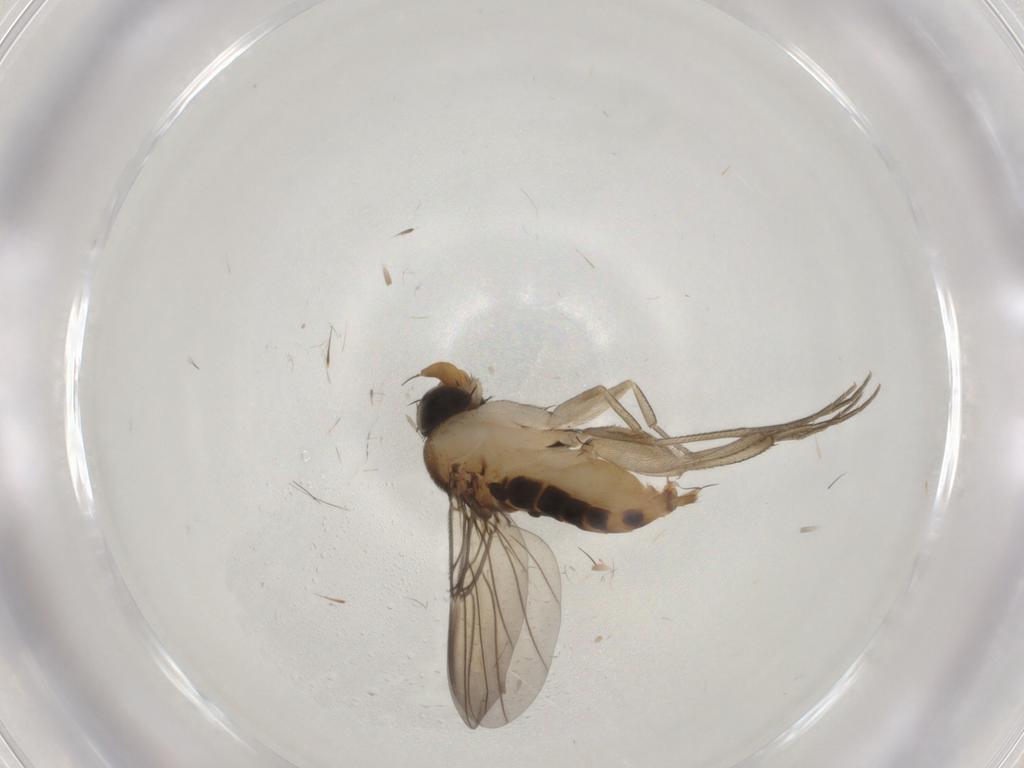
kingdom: Animalia
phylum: Arthropoda
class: Insecta
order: Diptera
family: Phoridae
